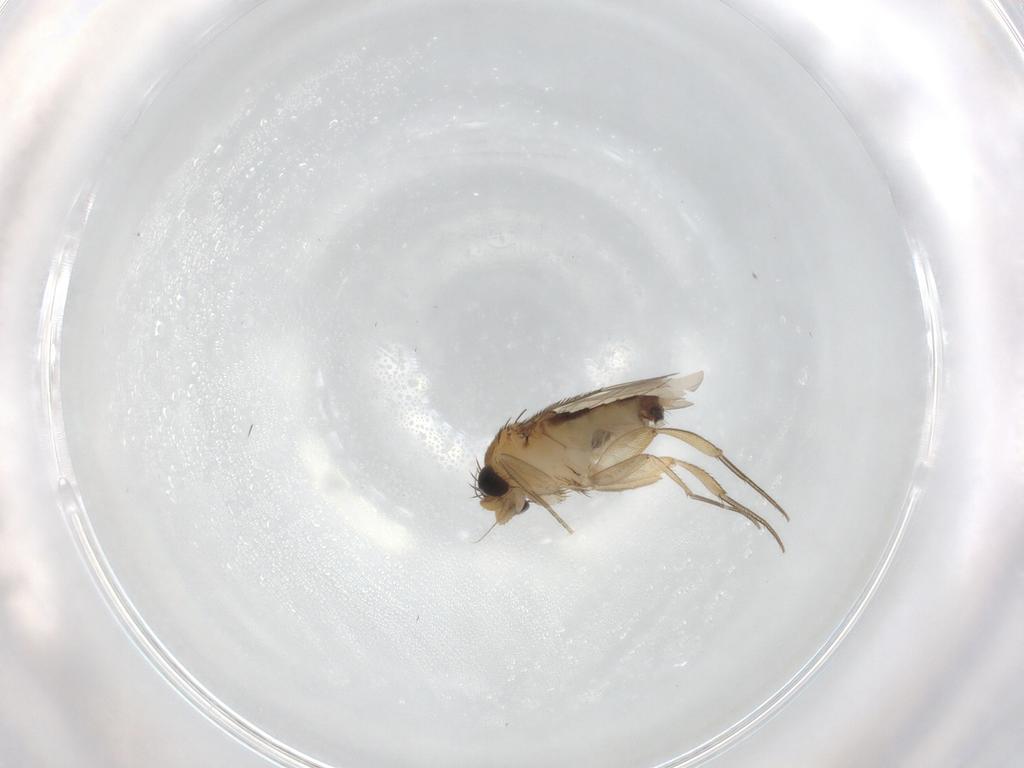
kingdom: Animalia
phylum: Arthropoda
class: Insecta
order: Diptera
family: Phoridae
